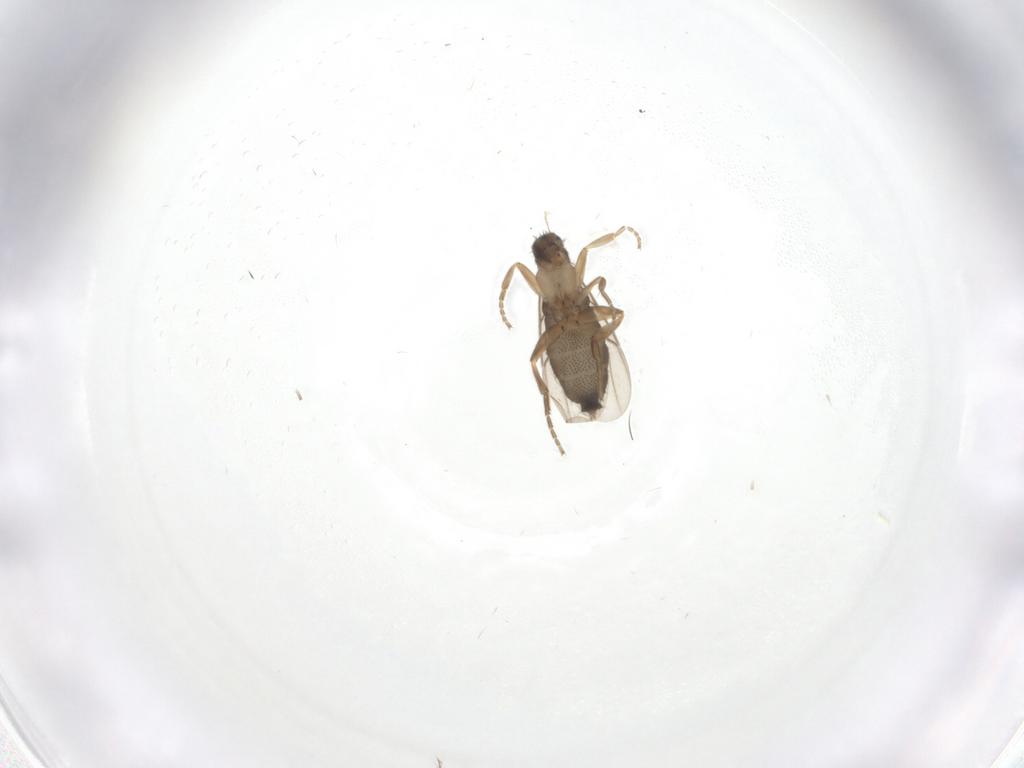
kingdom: Animalia
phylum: Arthropoda
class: Insecta
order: Diptera
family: Phoridae
